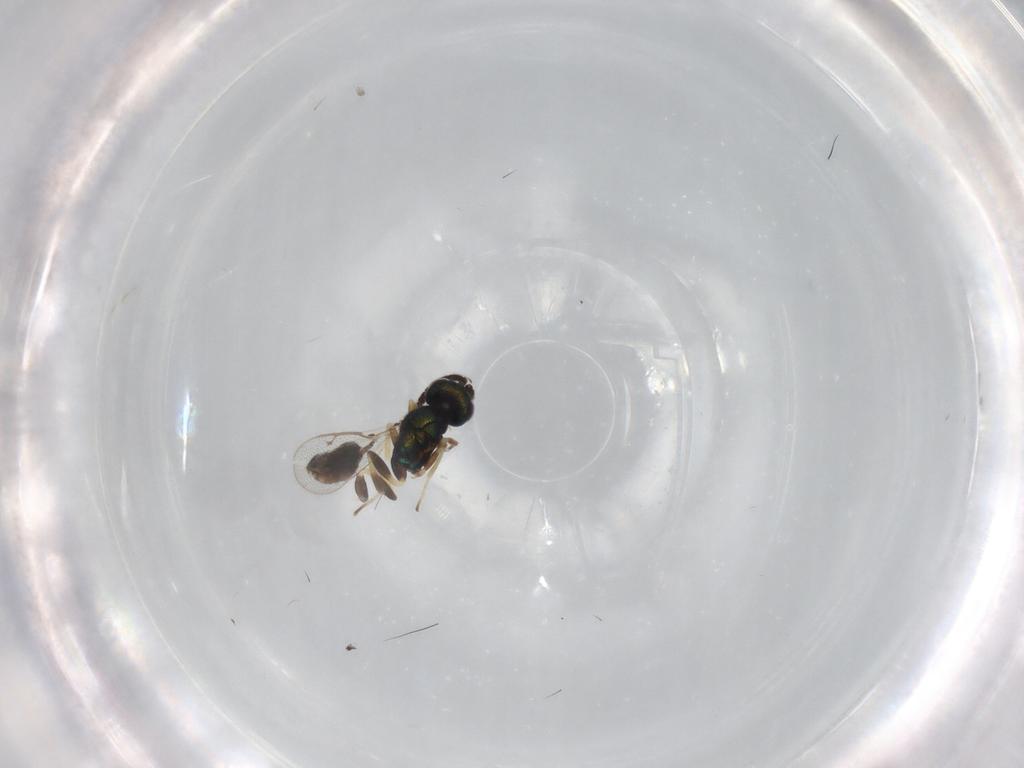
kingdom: Animalia
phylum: Arthropoda
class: Insecta
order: Hymenoptera
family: Eupelmidae
